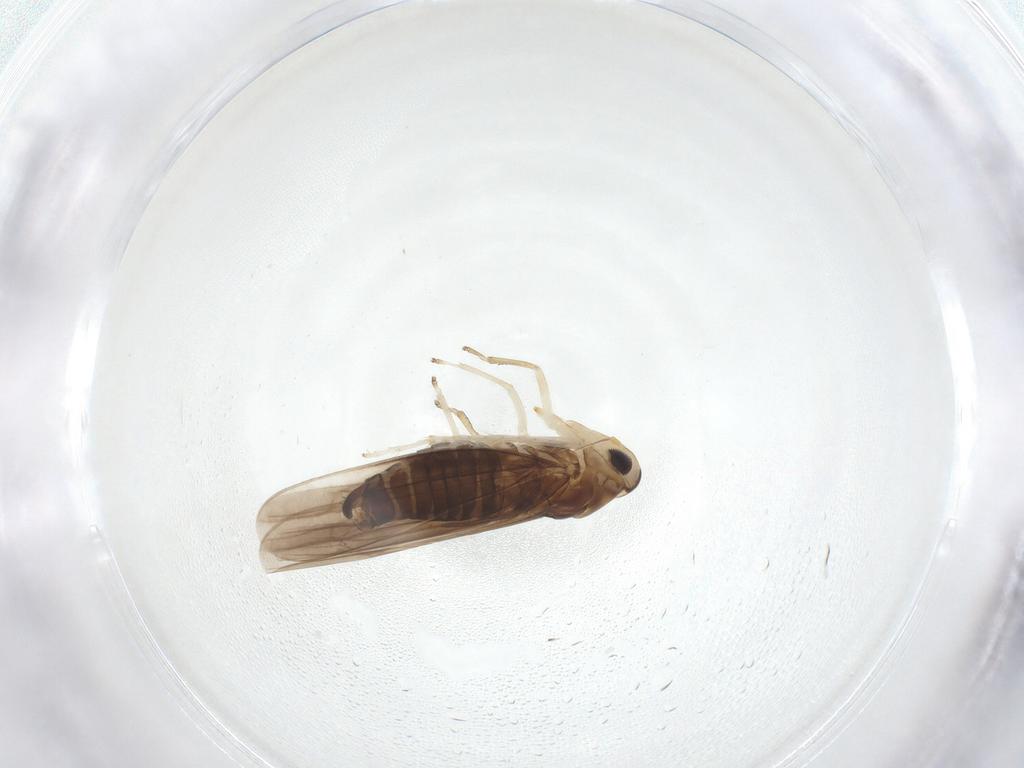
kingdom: Animalia
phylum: Arthropoda
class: Insecta
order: Hemiptera
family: Cicadellidae
